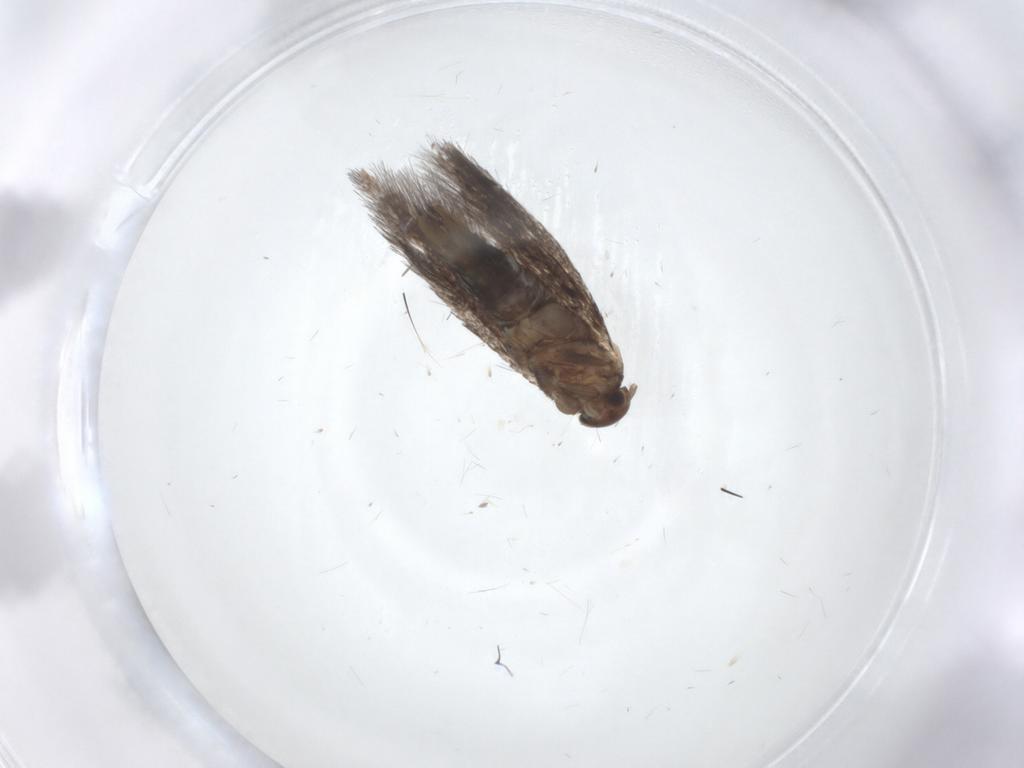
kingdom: Animalia
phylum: Arthropoda
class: Insecta
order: Lepidoptera
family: Elachistidae
